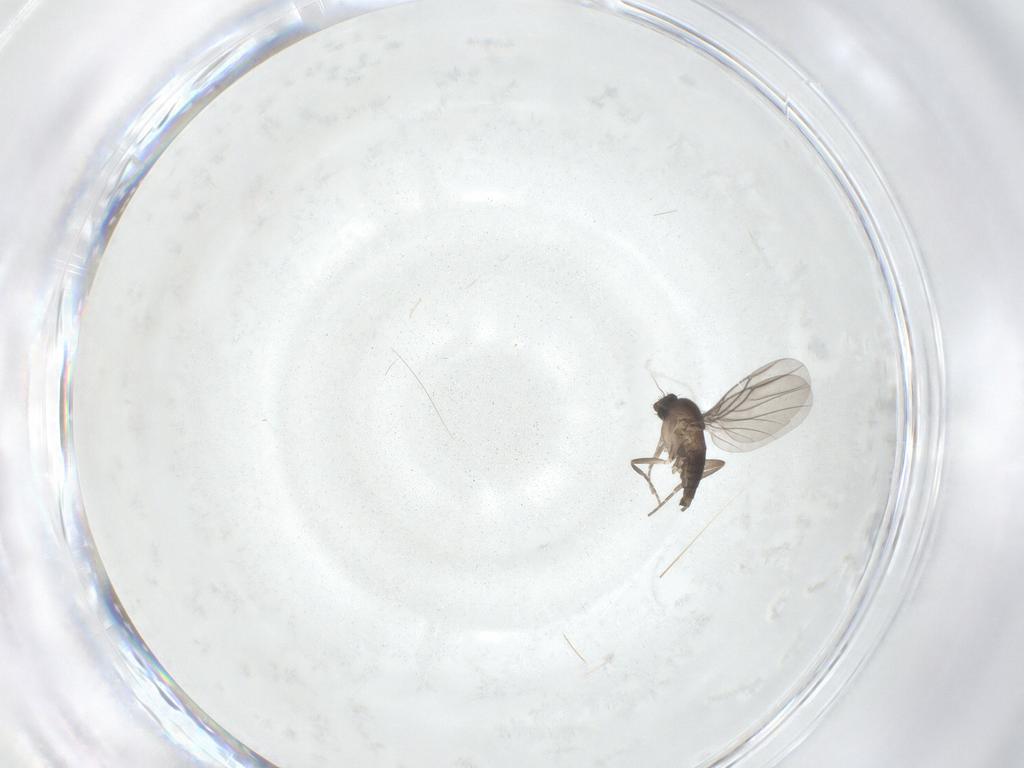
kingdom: Animalia
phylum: Arthropoda
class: Insecta
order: Diptera
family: Phoridae
